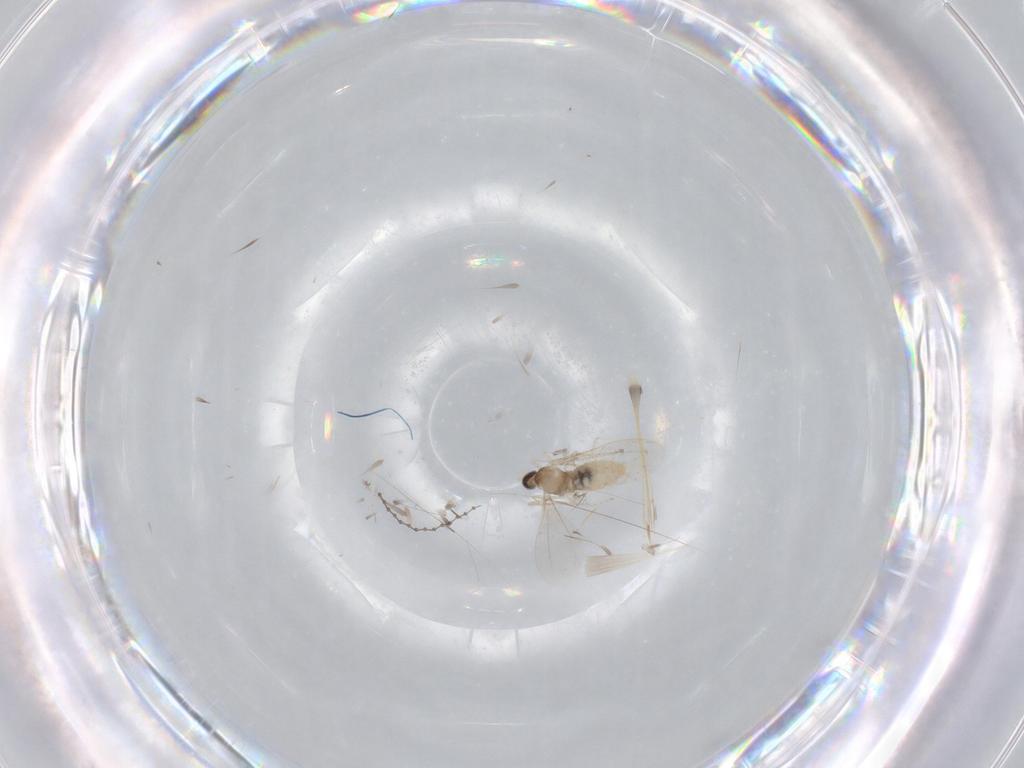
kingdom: Animalia
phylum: Arthropoda
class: Insecta
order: Diptera
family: Cecidomyiidae
